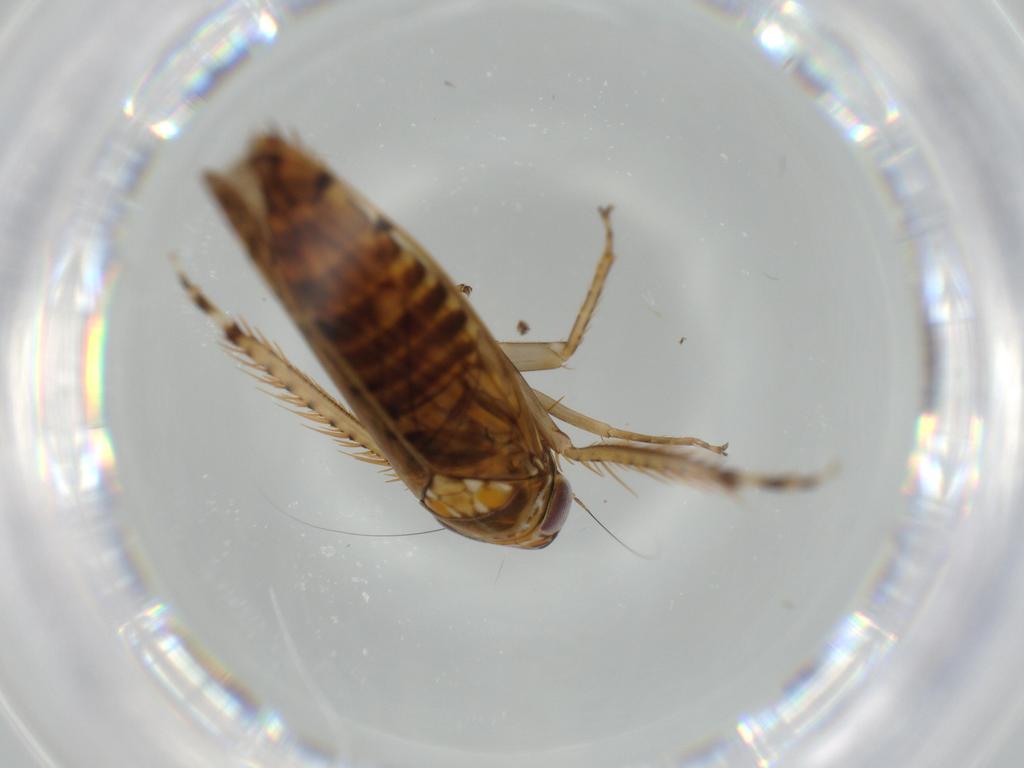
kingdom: Animalia
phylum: Arthropoda
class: Insecta
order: Hemiptera
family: Cicadellidae
